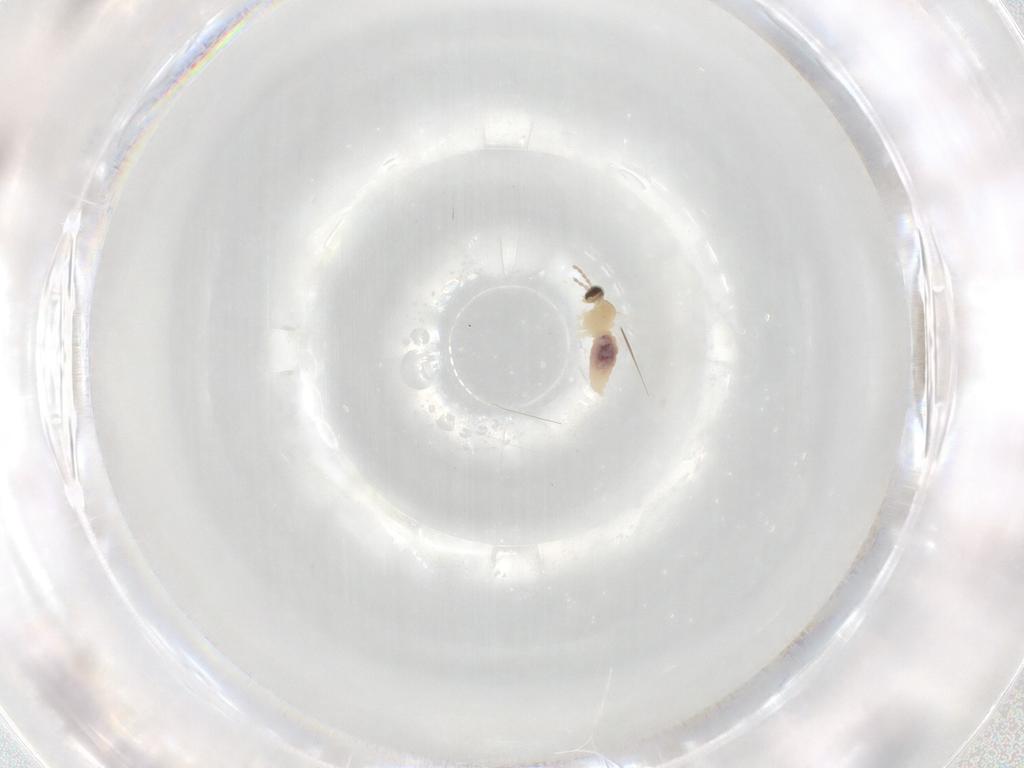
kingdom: Animalia
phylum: Arthropoda
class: Insecta
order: Diptera
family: Cecidomyiidae
